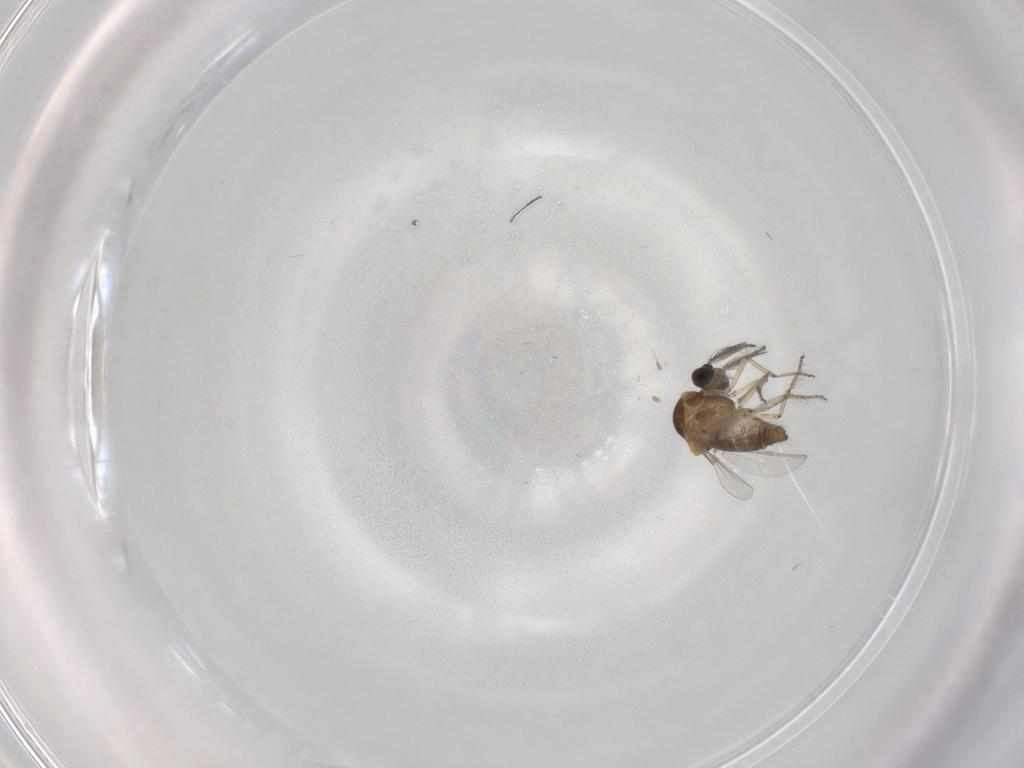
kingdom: Animalia
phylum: Arthropoda
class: Insecta
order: Diptera
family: Ceratopogonidae
